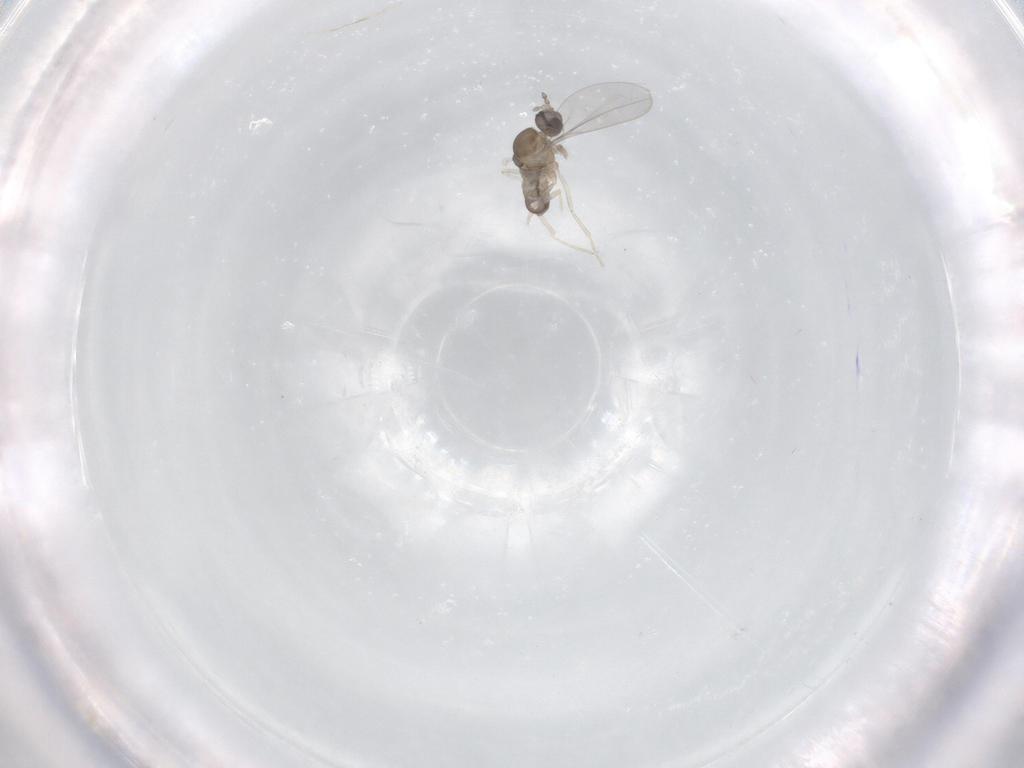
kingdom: Animalia
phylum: Arthropoda
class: Insecta
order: Diptera
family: Cecidomyiidae
